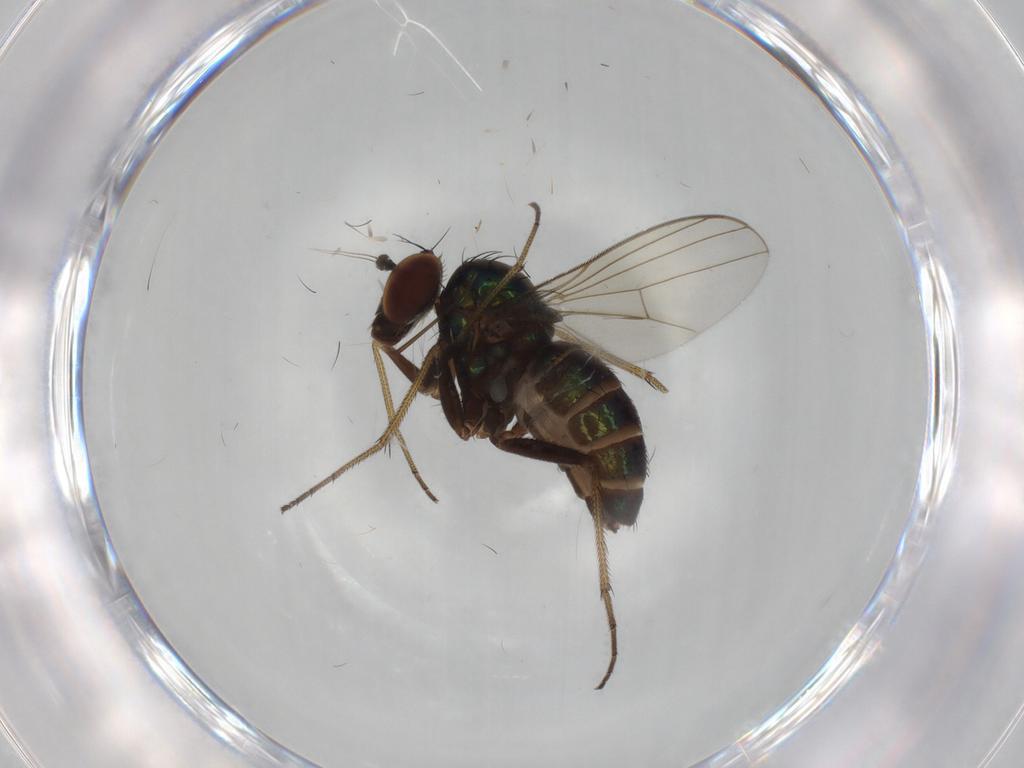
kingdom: Animalia
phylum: Arthropoda
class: Insecta
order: Diptera
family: Dolichopodidae
